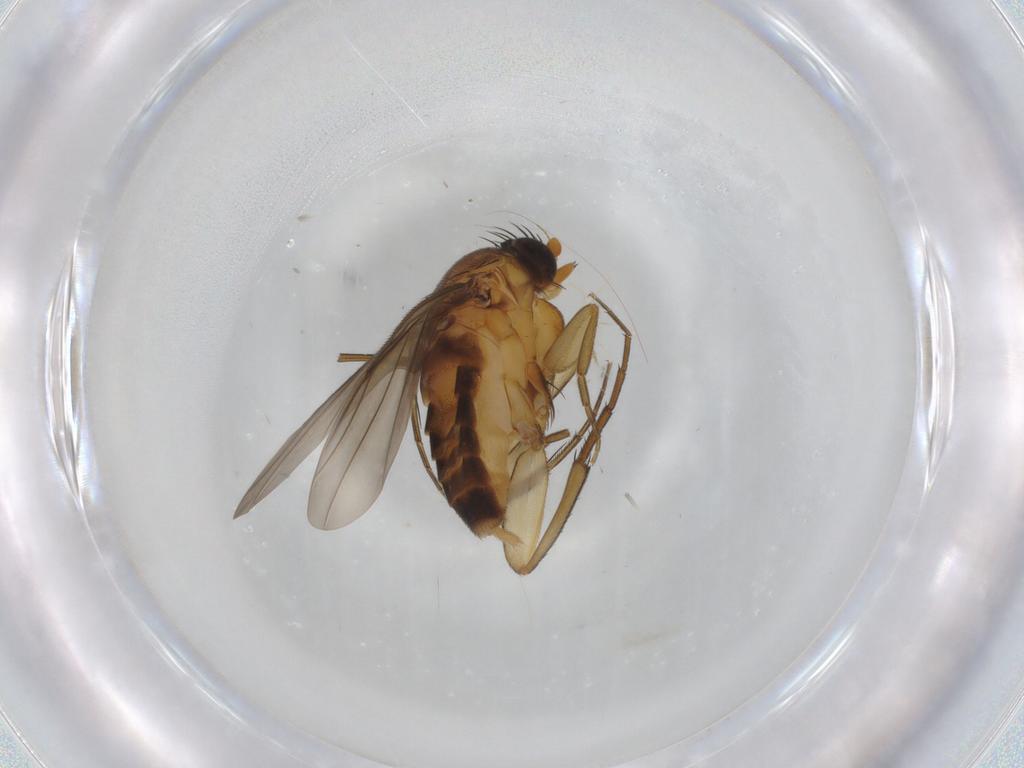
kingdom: Animalia
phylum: Arthropoda
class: Insecta
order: Diptera
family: Phoridae
